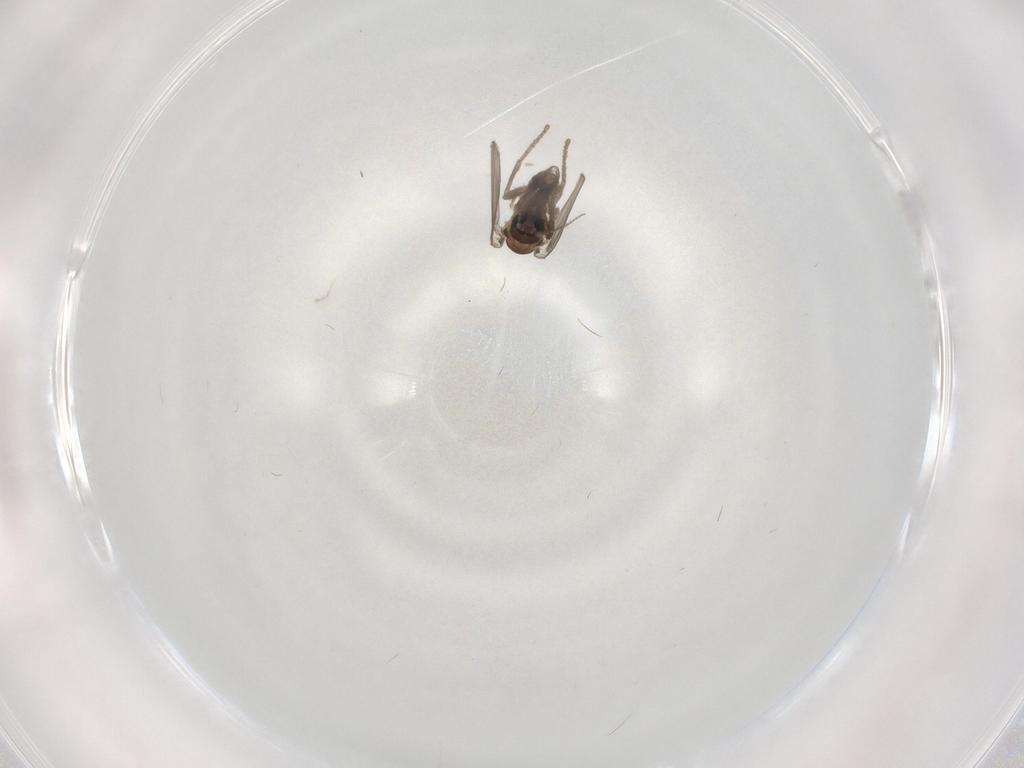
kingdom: Animalia
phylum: Arthropoda
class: Insecta
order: Diptera
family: Psychodidae
